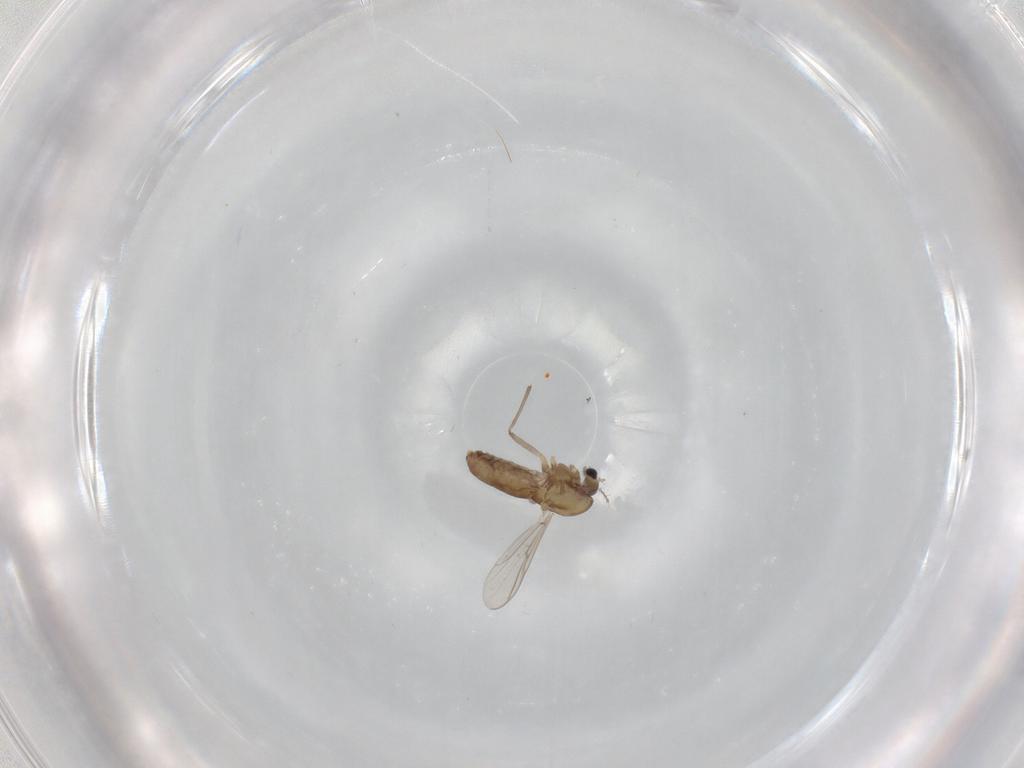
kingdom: Animalia
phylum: Arthropoda
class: Insecta
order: Diptera
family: Chironomidae
